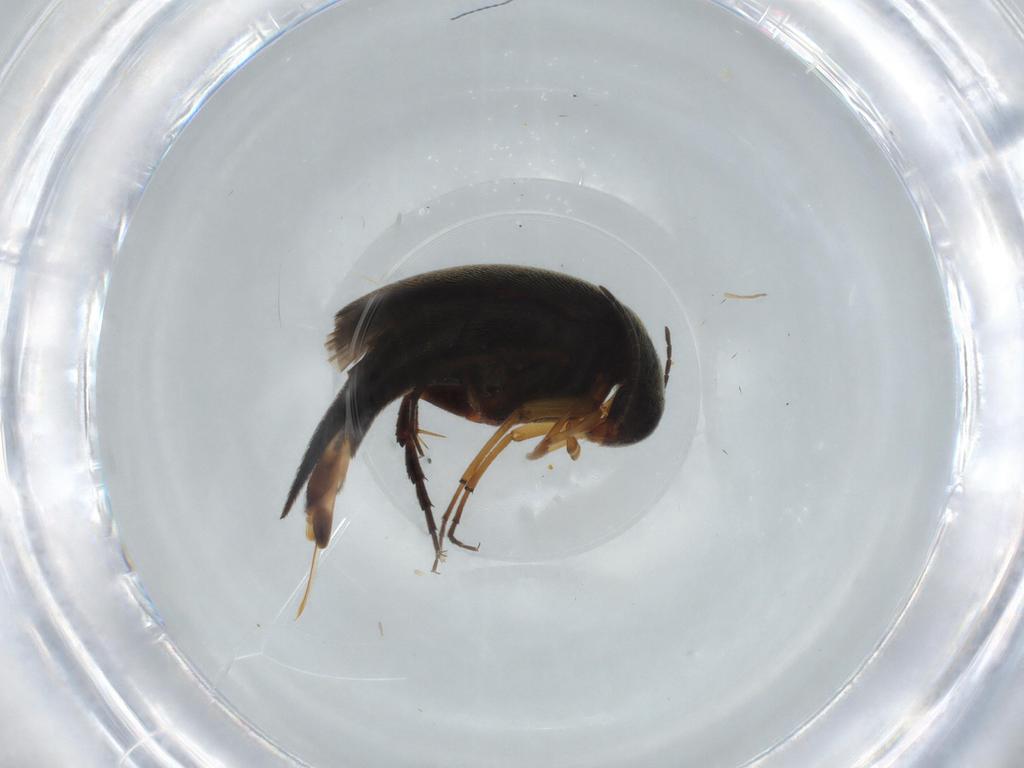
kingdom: Animalia
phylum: Arthropoda
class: Insecta
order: Coleoptera
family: Mordellidae
